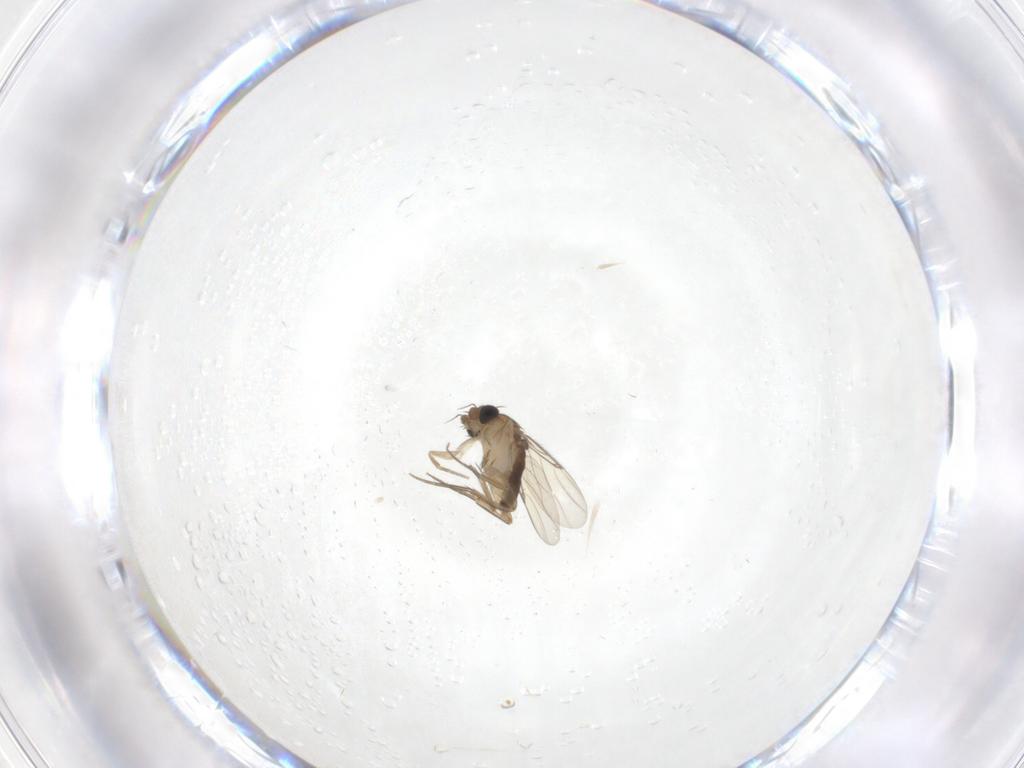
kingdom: Animalia
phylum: Arthropoda
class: Insecta
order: Diptera
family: Phoridae
